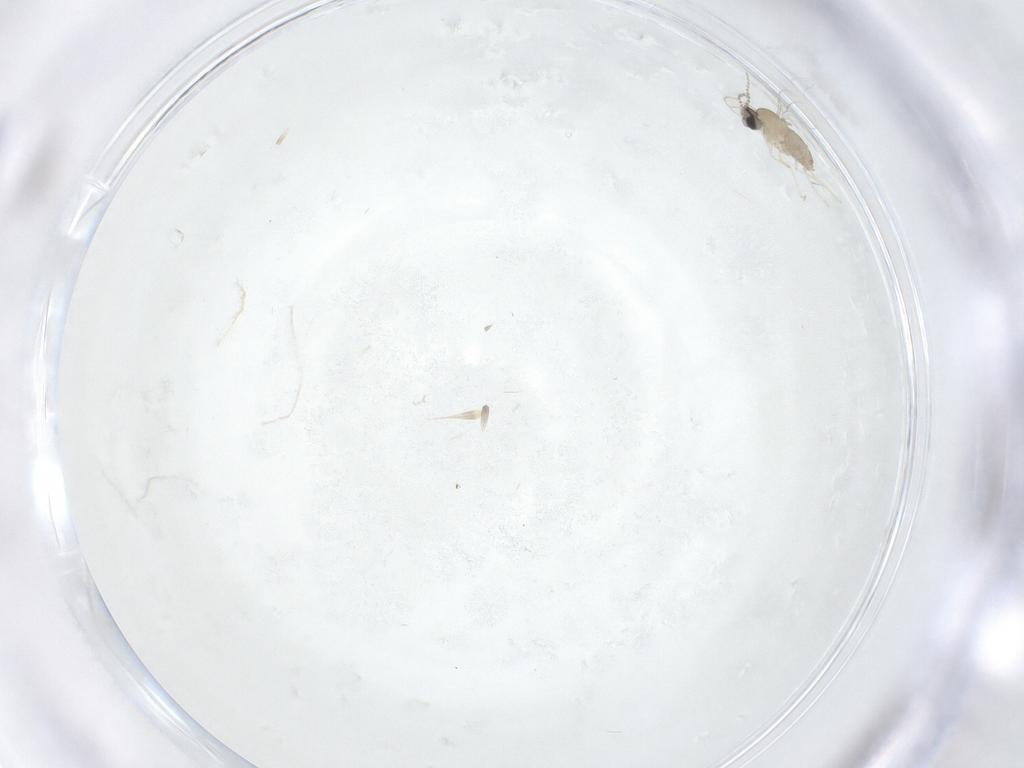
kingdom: Animalia
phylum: Arthropoda
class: Insecta
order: Diptera
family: Cecidomyiidae
